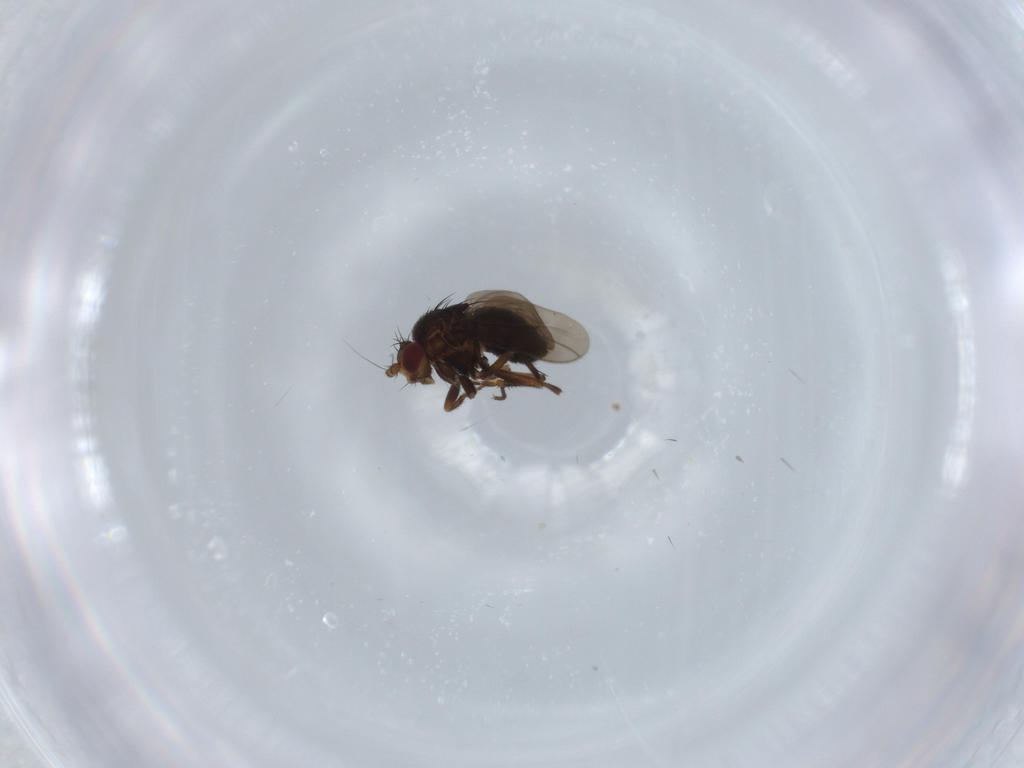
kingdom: Animalia
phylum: Arthropoda
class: Insecta
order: Diptera
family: Sphaeroceridae
